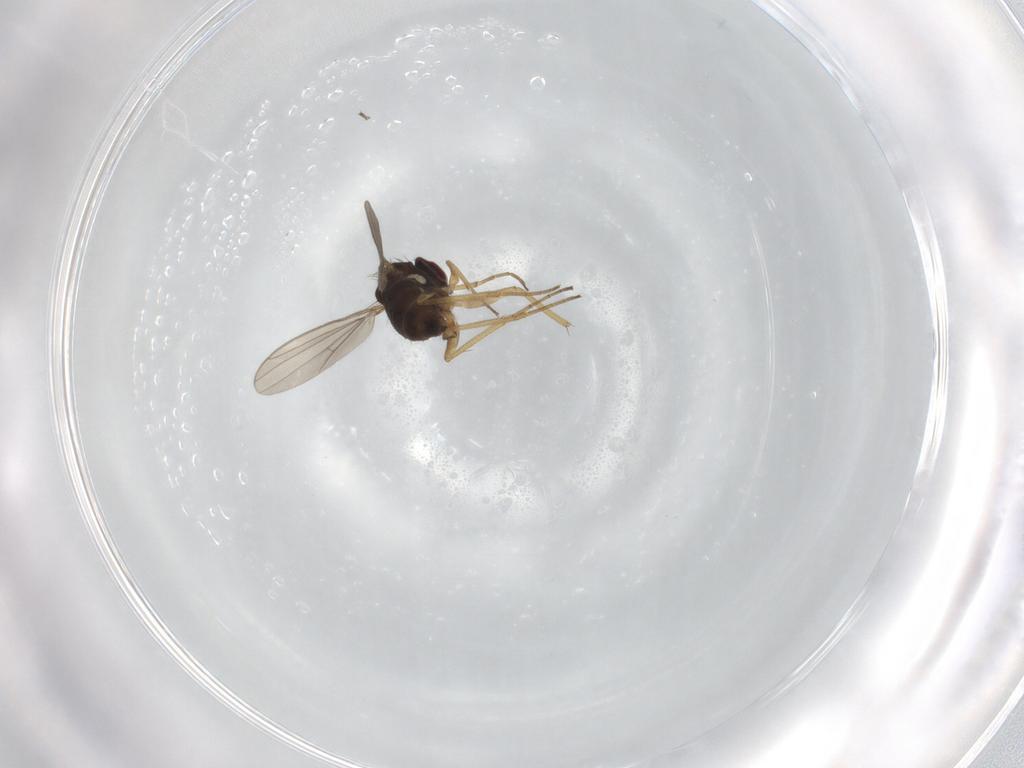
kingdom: Animalia
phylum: Arthropoda
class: Insecta
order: Diptera
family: Dolichopodidae
